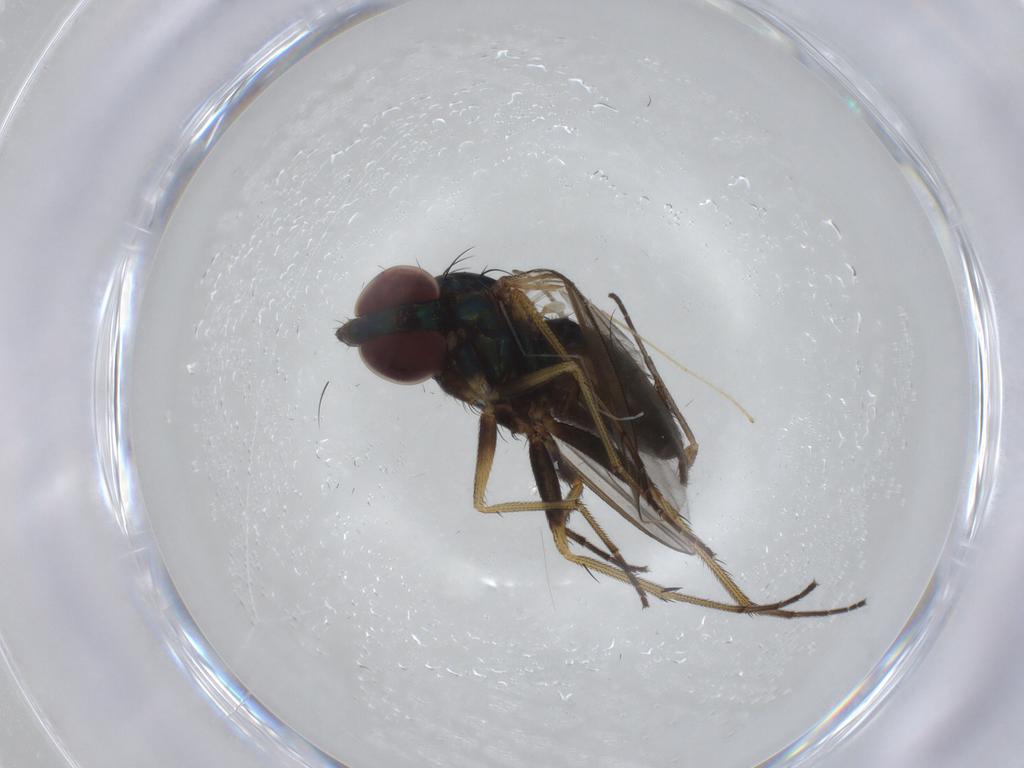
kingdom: Animalia
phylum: Arthropoda
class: Insecta
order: Diptera
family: Dolichopodidae
